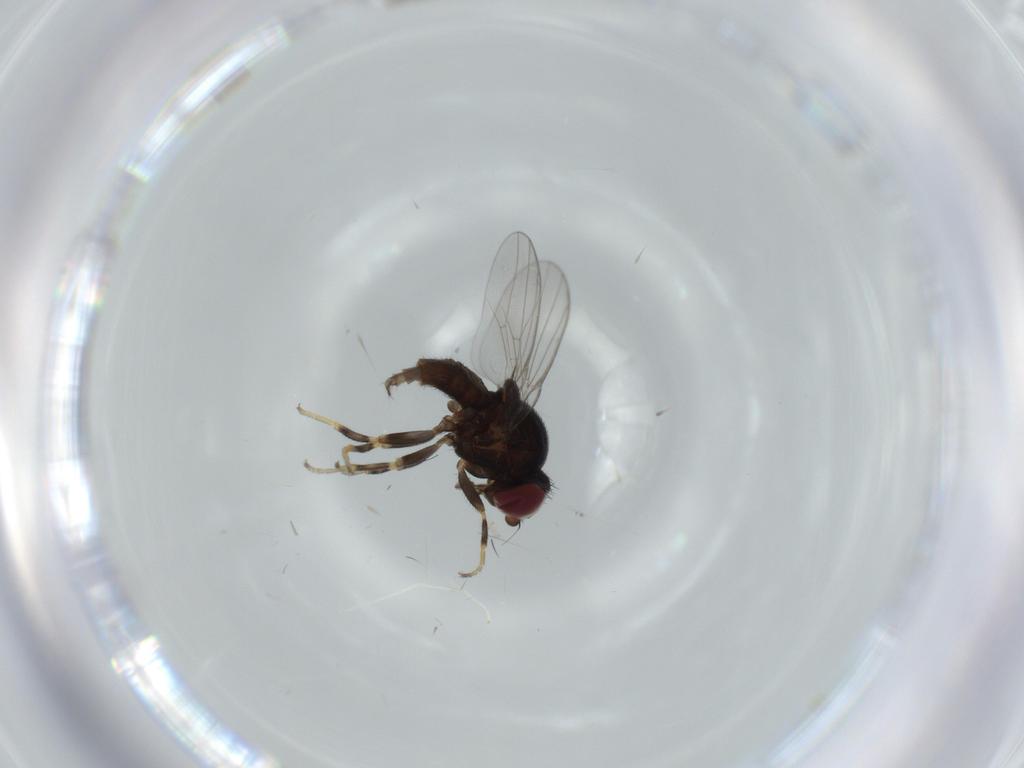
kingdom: Animalia
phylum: Arthropoda
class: Insecta
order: Diptera
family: Chloropidae
